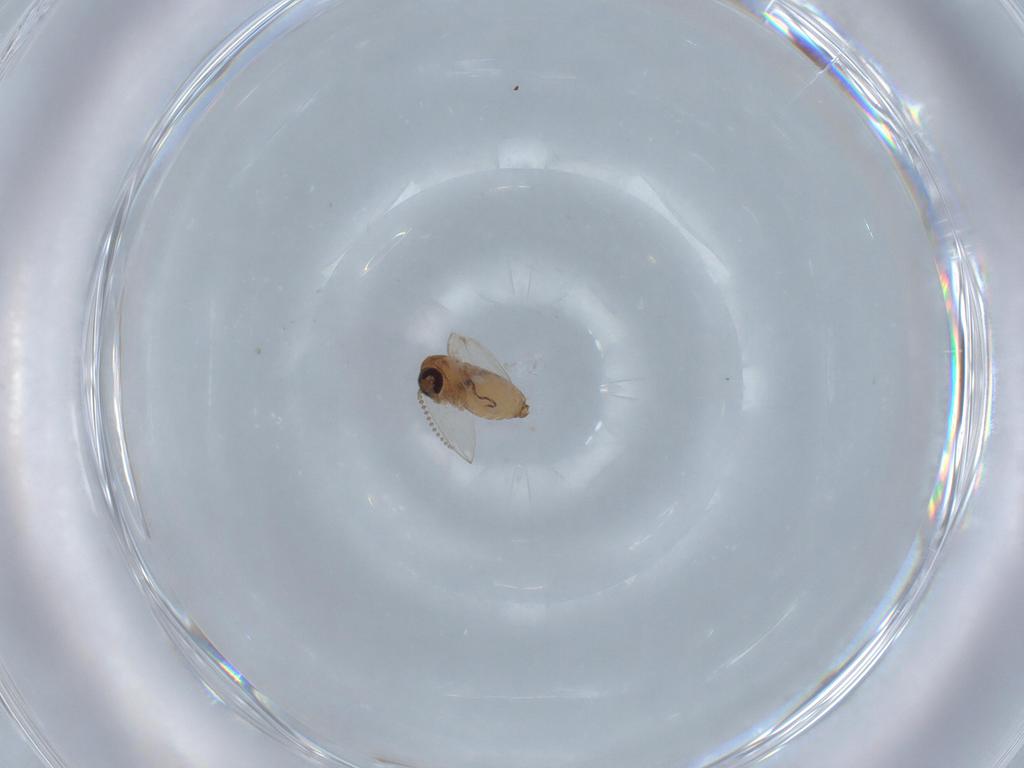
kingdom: Animalia
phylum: Arthropoda
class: Insecta
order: Diptera
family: Psychodidae
